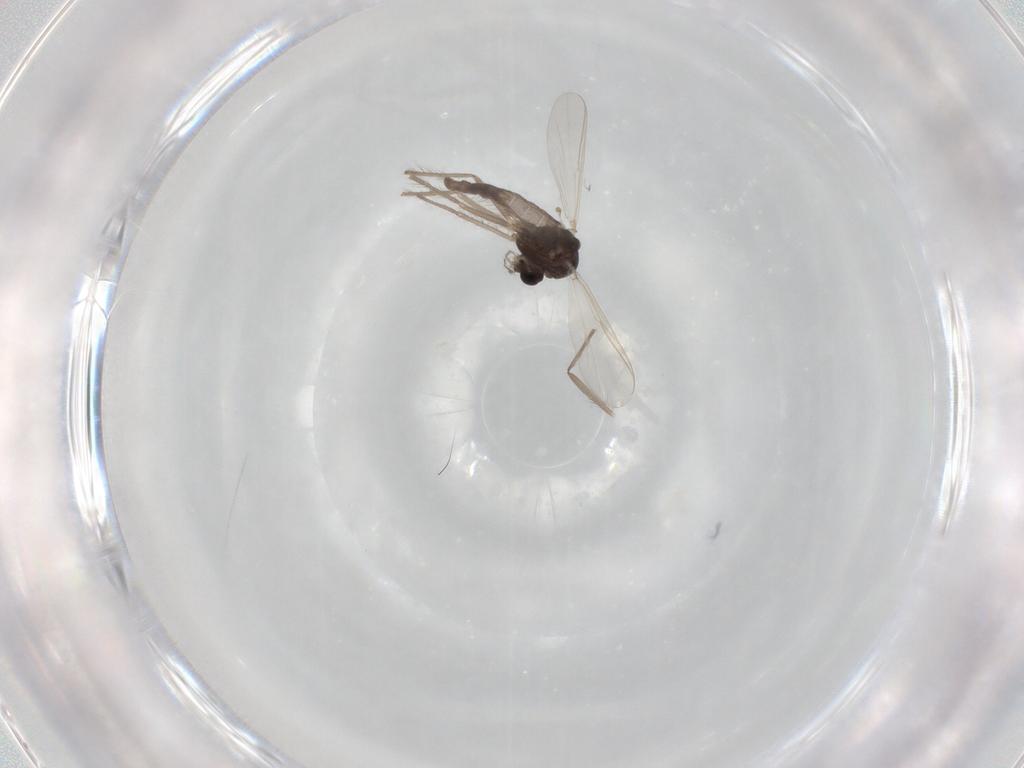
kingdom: Animalia
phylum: Arthropoda
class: Insecta
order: Diptera
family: Chironomidae
